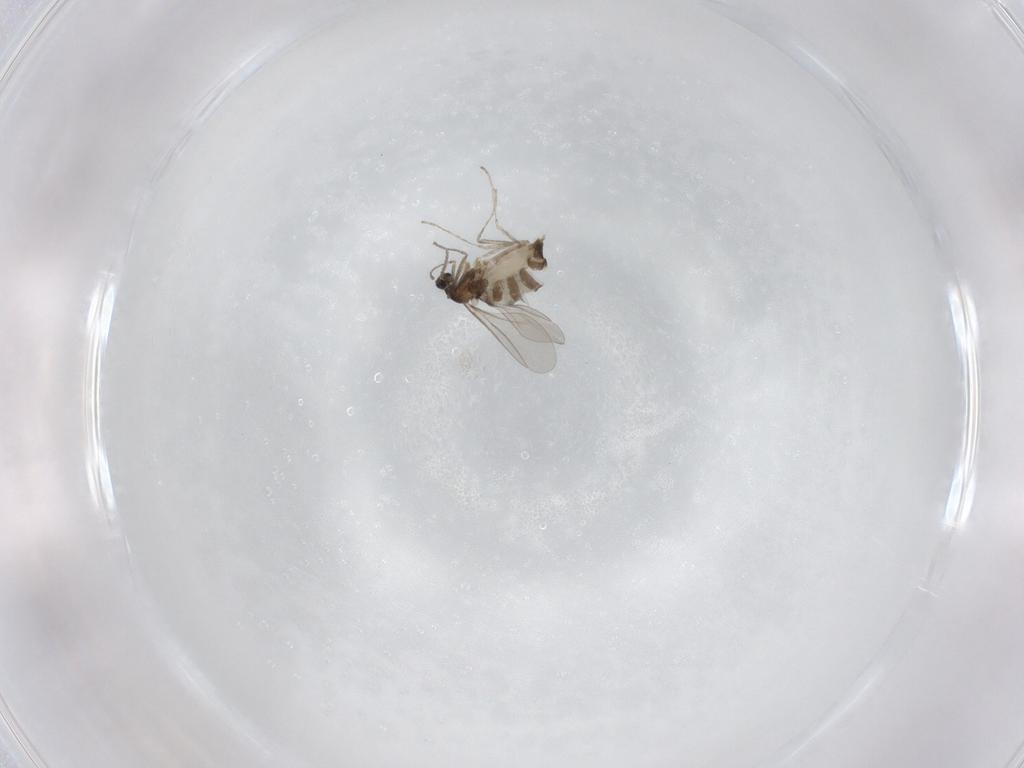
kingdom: Animalia
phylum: Arthropoda
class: Insecta
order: Diptera
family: Cecidomyiidae
